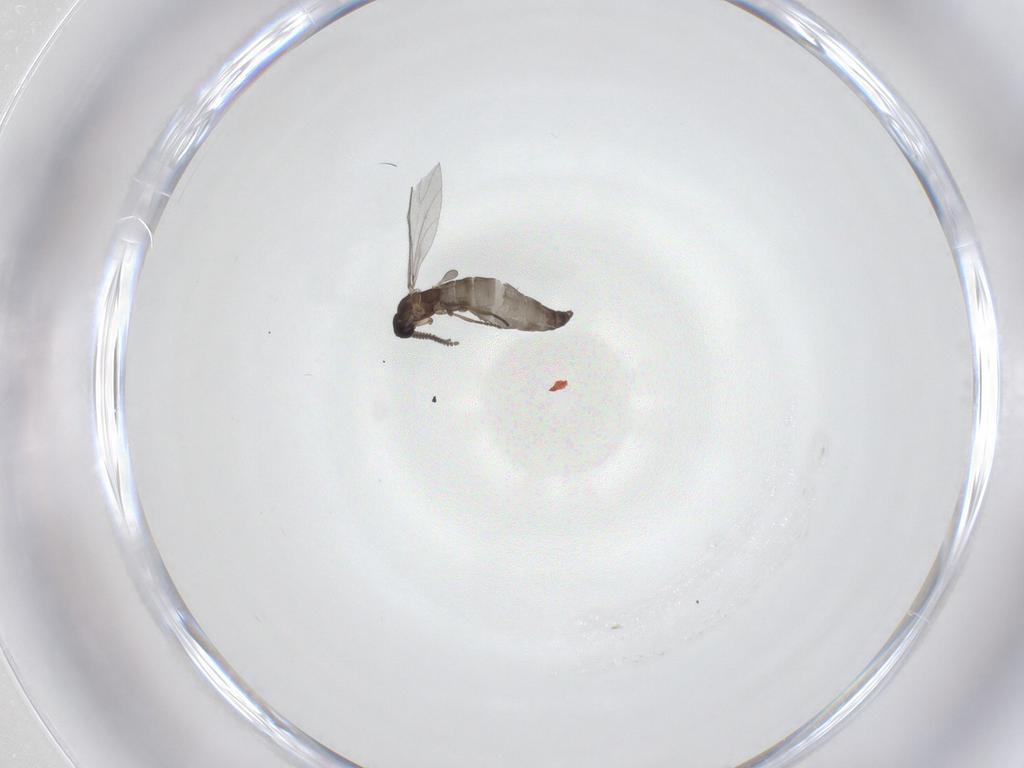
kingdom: Animalia
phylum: Arthropoda
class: Insecta
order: Diptera
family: Sciaridae
